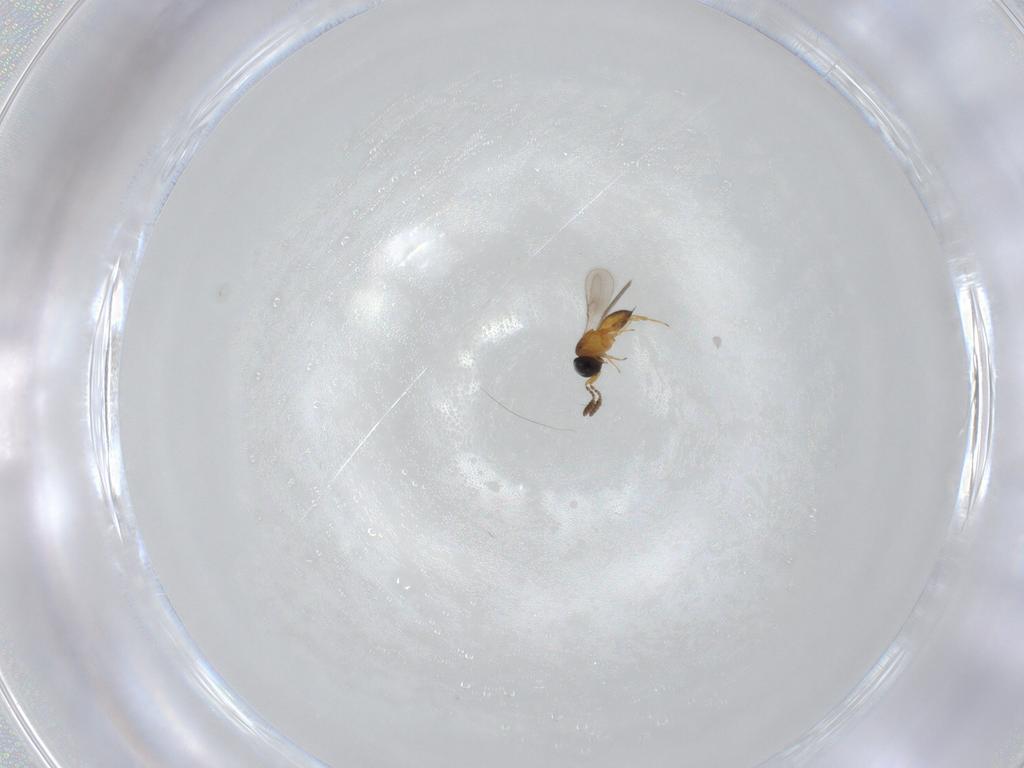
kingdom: Animalia
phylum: Arthropoda
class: Insecta
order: Hymenoptera
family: Scelionidae
